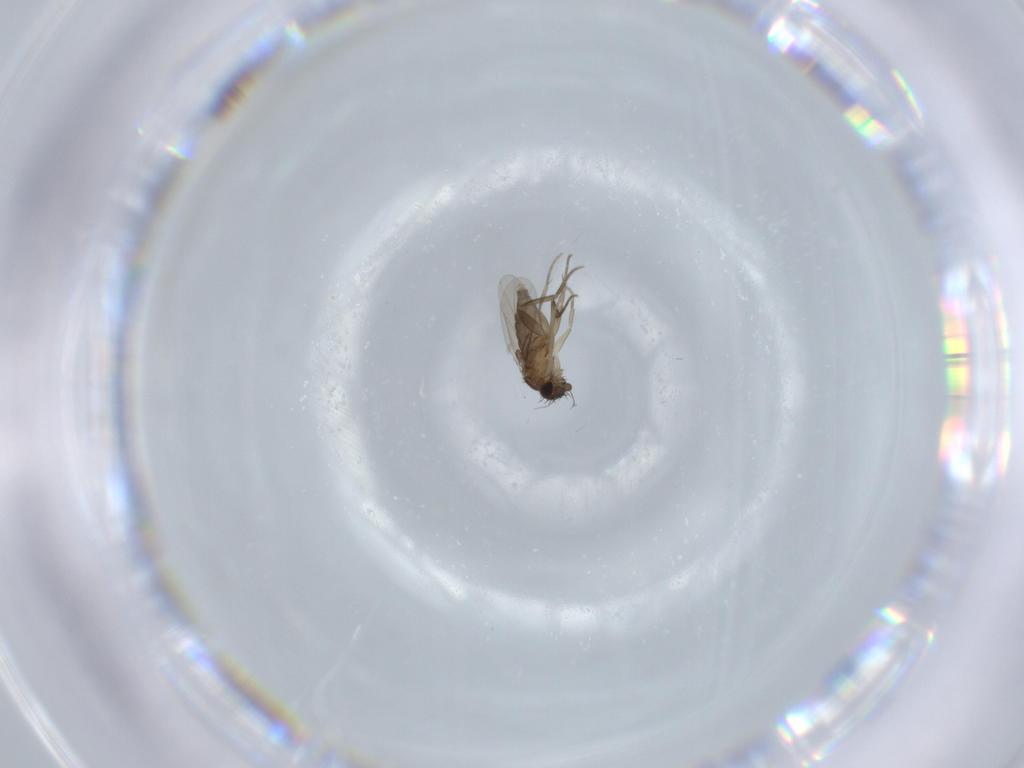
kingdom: Animalia
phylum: Arthropoda
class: Insecta
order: Diptera
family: Phoridae
